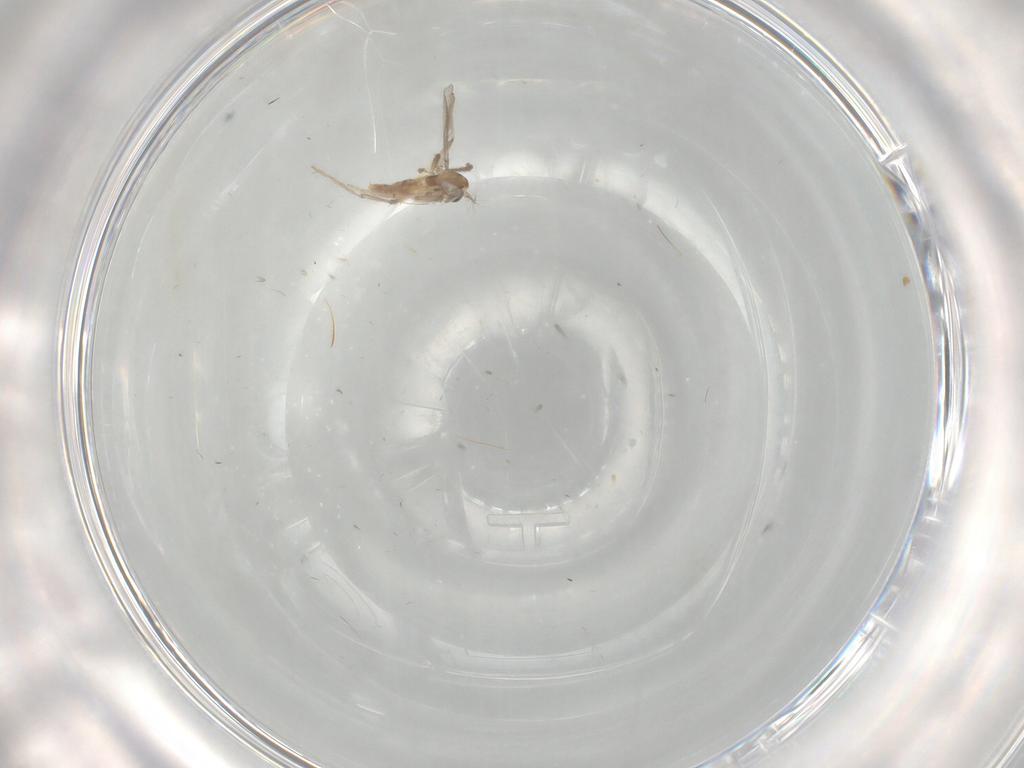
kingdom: Animalia
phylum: Arthropoda
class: Insecta
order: Diptera
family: Chironomidae
